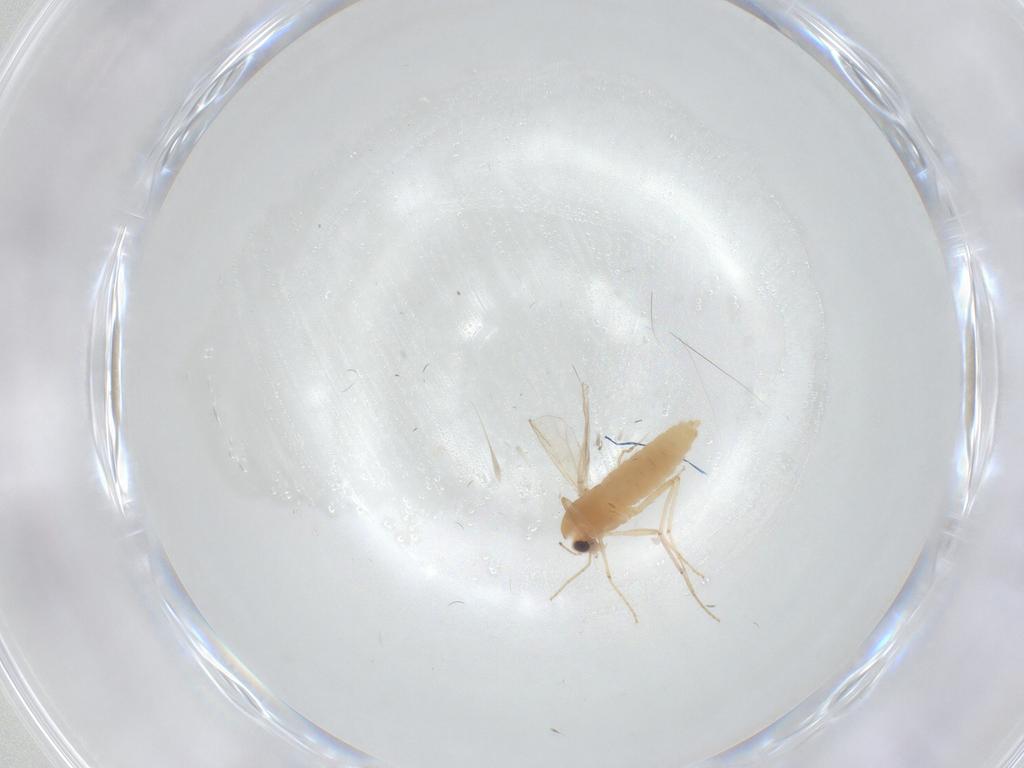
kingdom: Animalia
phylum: Arthropoda
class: Insecta
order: Diptera
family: Chironomidae
